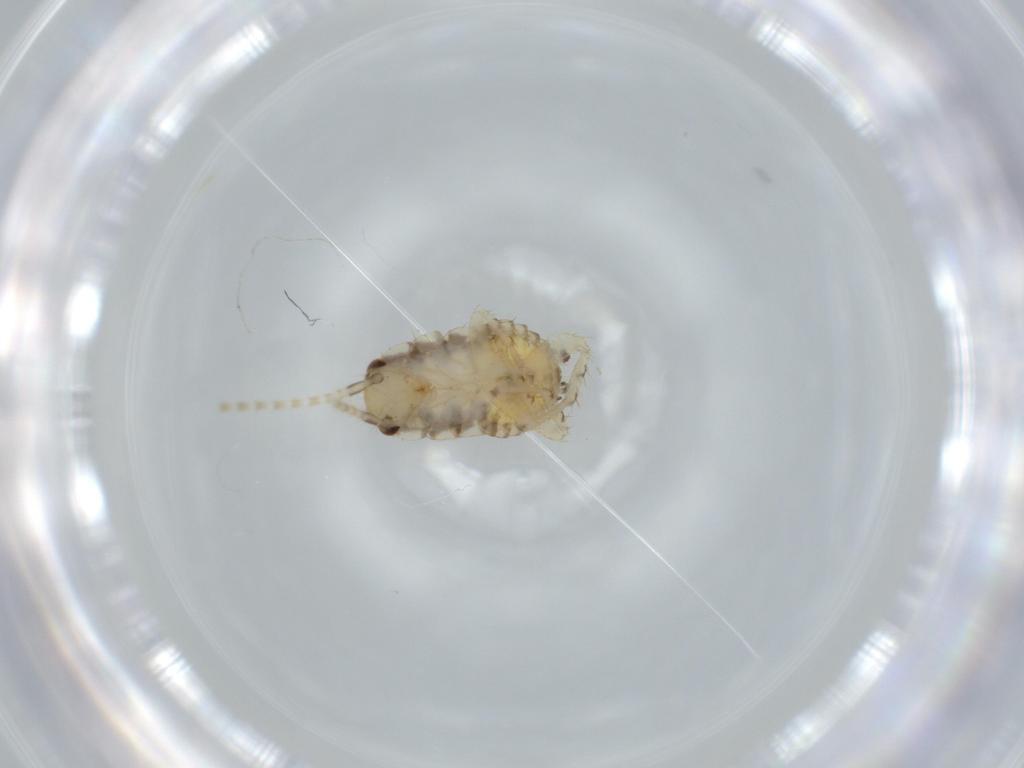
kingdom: Animalia
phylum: Arthropoda
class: Insecta
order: Blattodea
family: Ectobiidae
